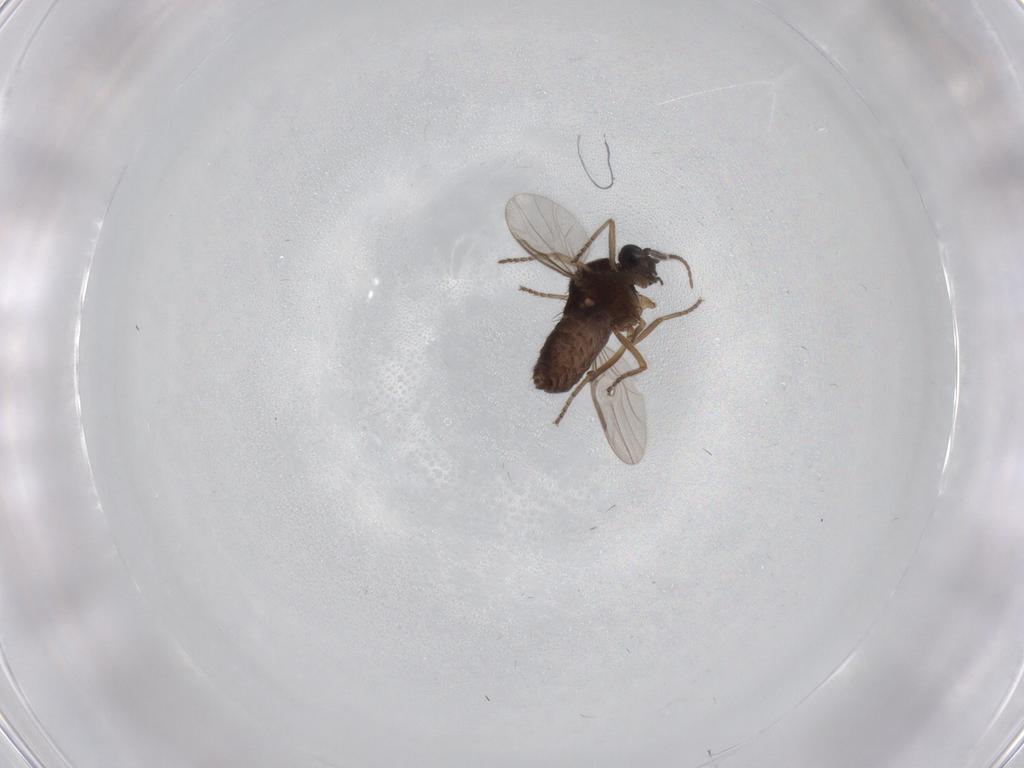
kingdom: Animalia
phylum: Arthropoda
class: Insecta
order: Diptera
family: Ceratopogonidae
